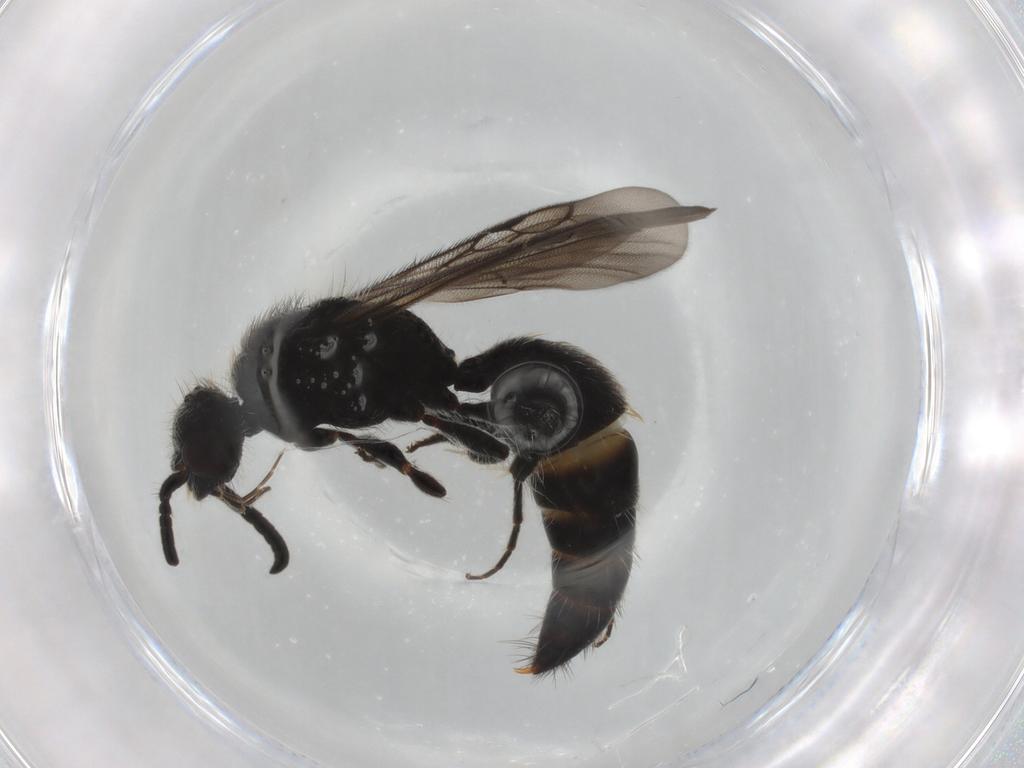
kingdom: Animalia
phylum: Arthropoda
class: Insecta
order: Hymenoptera
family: Mutillidae
